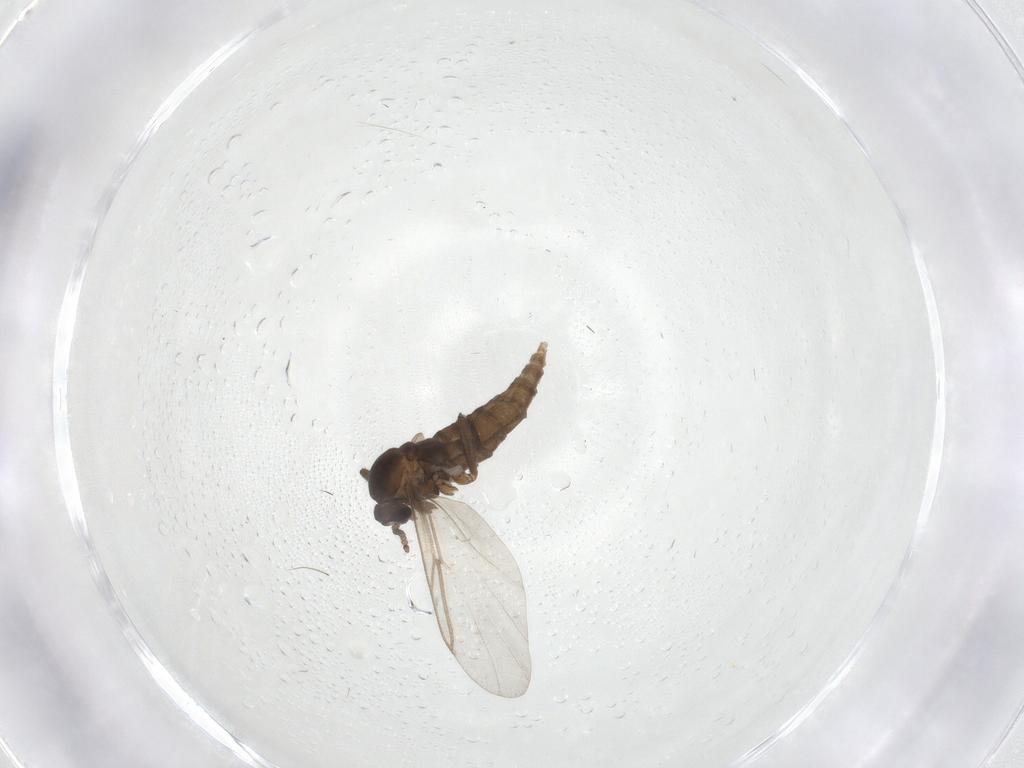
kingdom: Animalia
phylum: Arthropoda
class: Insecta
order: Diptera
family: Cecidomyiidae
